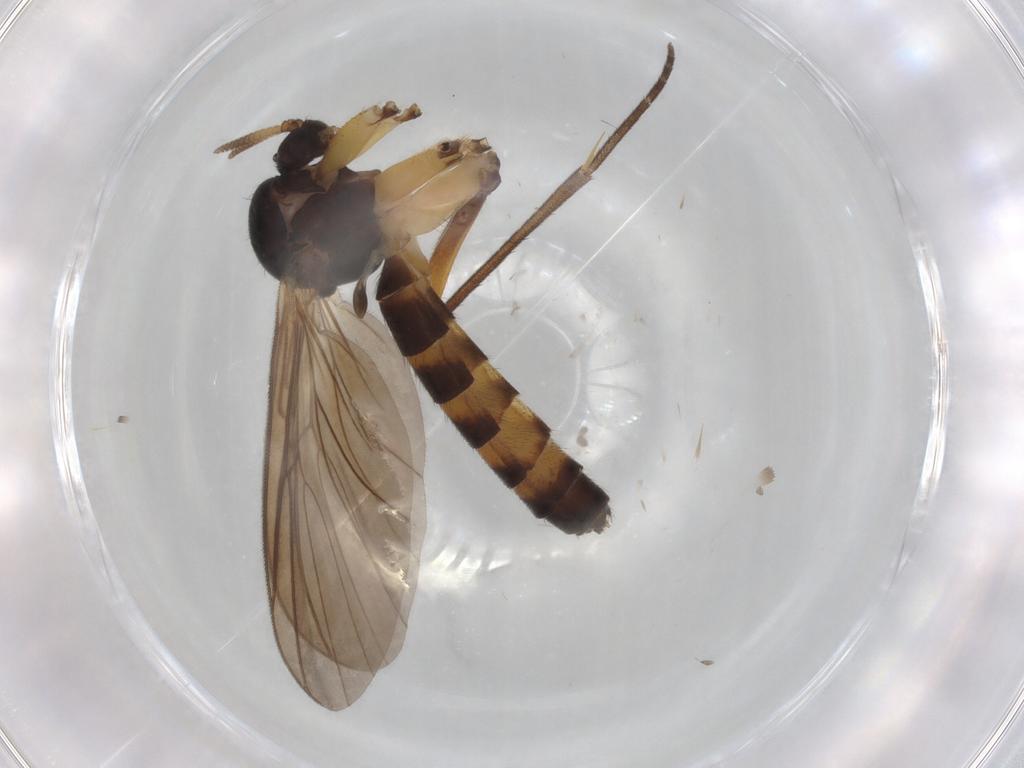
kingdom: Animalia
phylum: Arthropoda
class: Insecta
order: Diptera
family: Mycetophilidae
